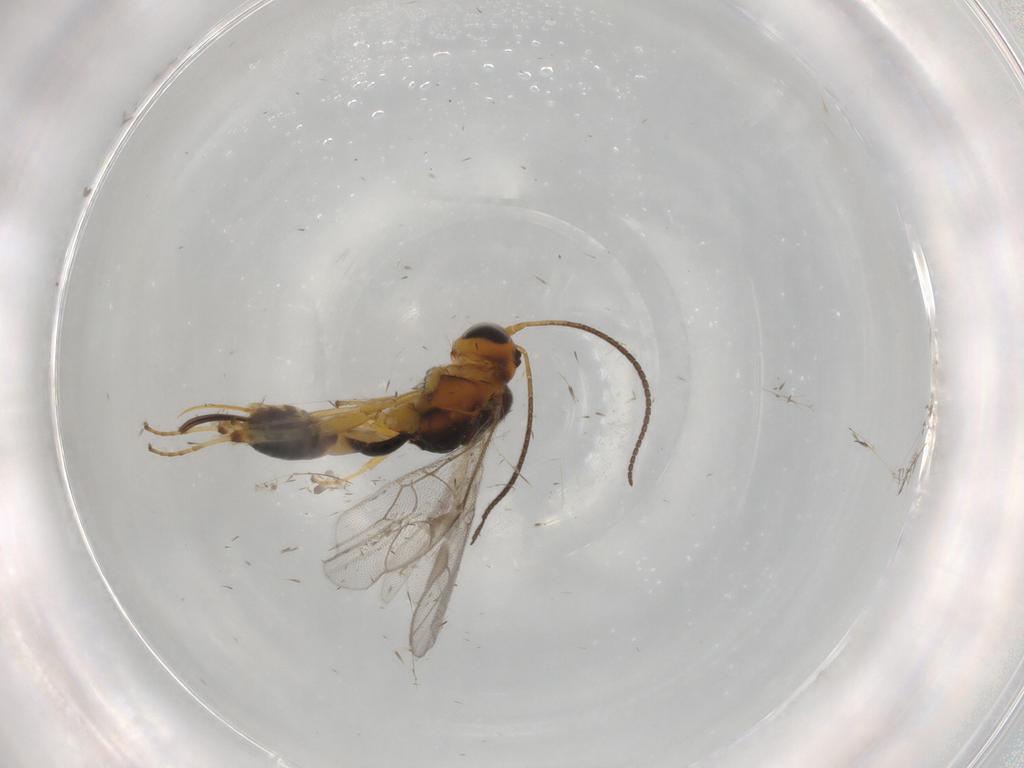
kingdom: Animalia
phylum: Arthropoda
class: Insecta
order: Hymenoptera
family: Ichneumonidae
